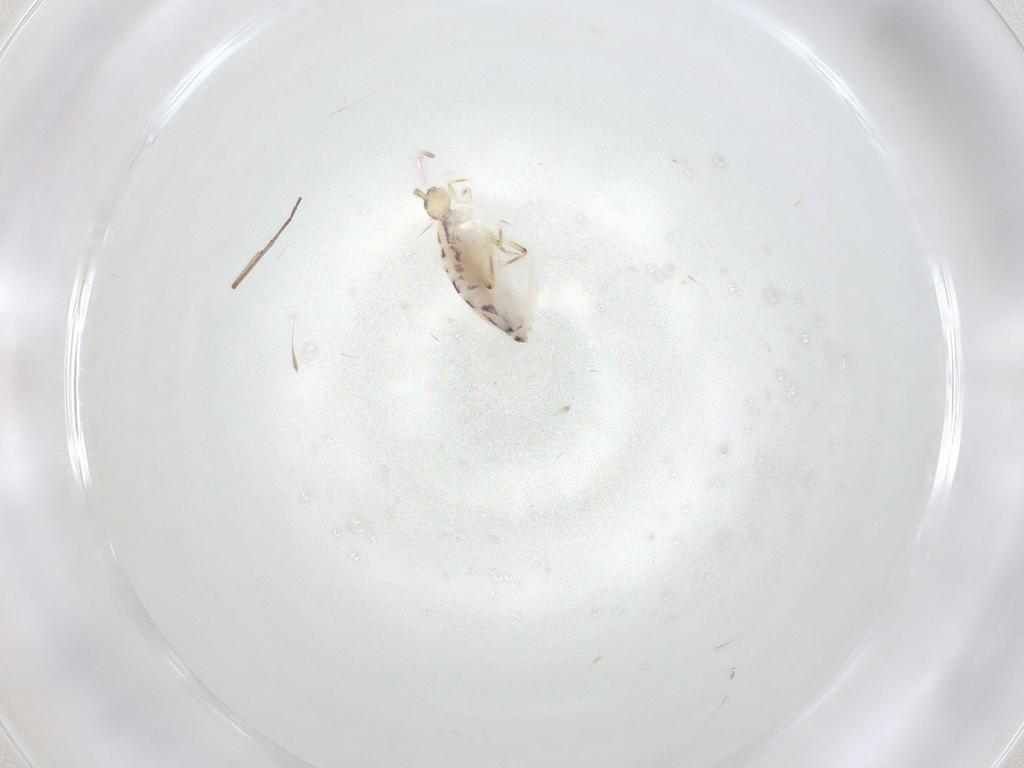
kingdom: Animalia
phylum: Arthropoda
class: Collembola
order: Entomobryomorpha
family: Entomobryidae
